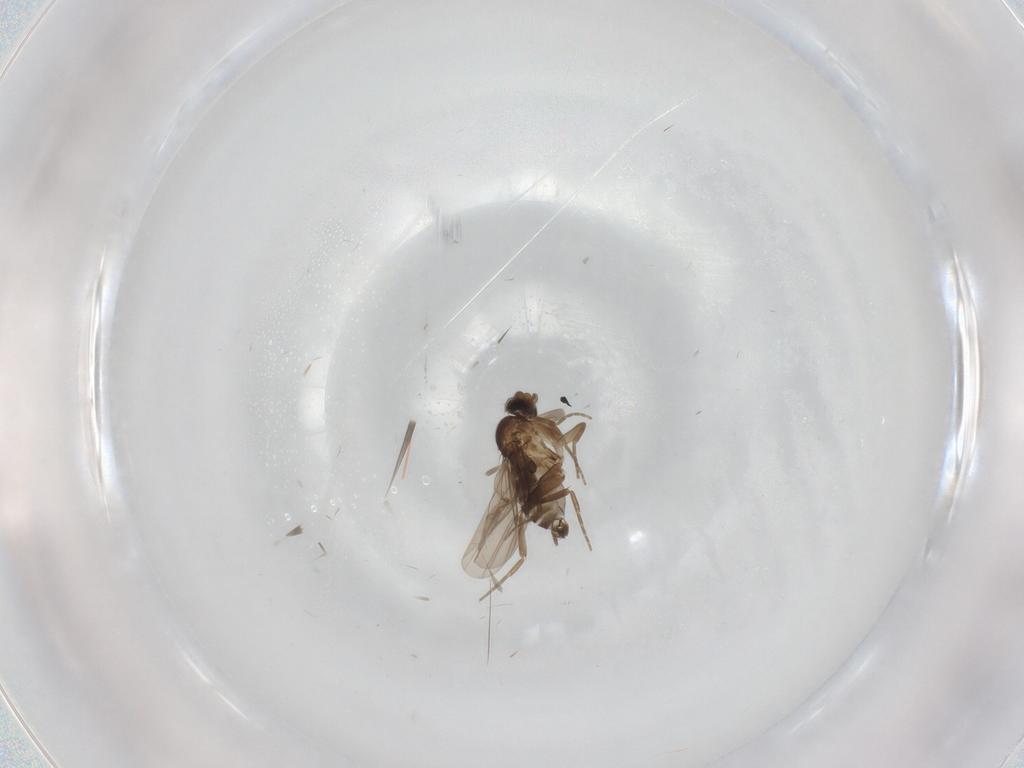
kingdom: Animalia
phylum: Arthropoda
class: Insecta
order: Diptera
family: Phoridae
